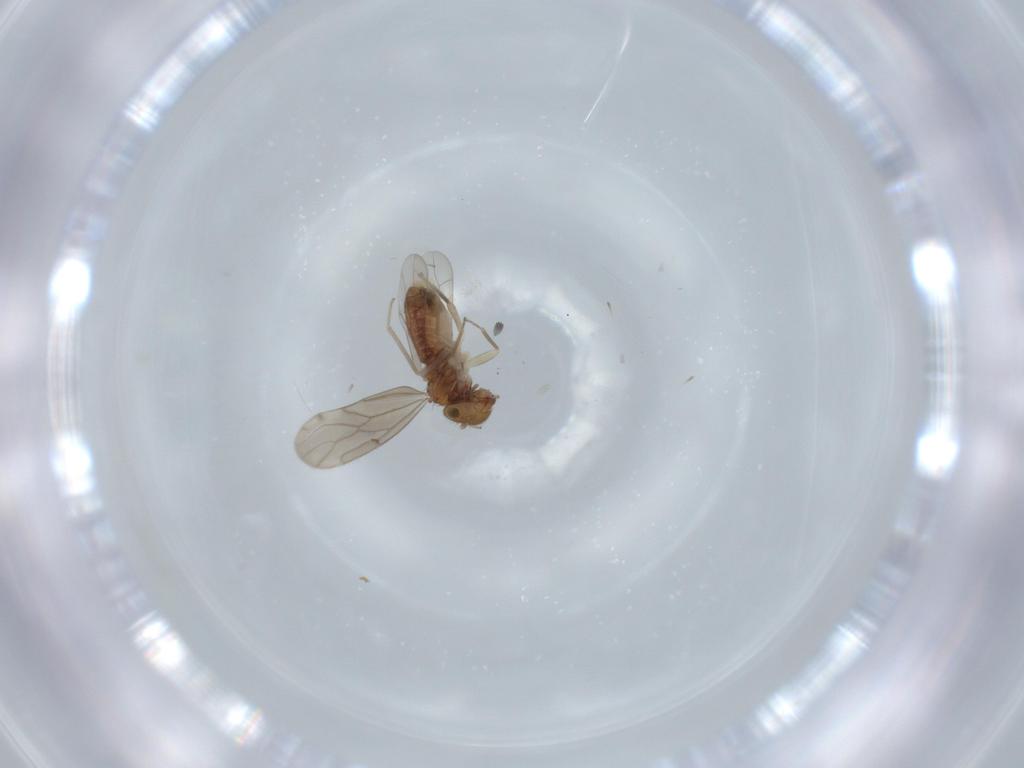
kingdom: Animalia
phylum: Arthropoda
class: Insecta
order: Psocodea
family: Ectopsocidae
